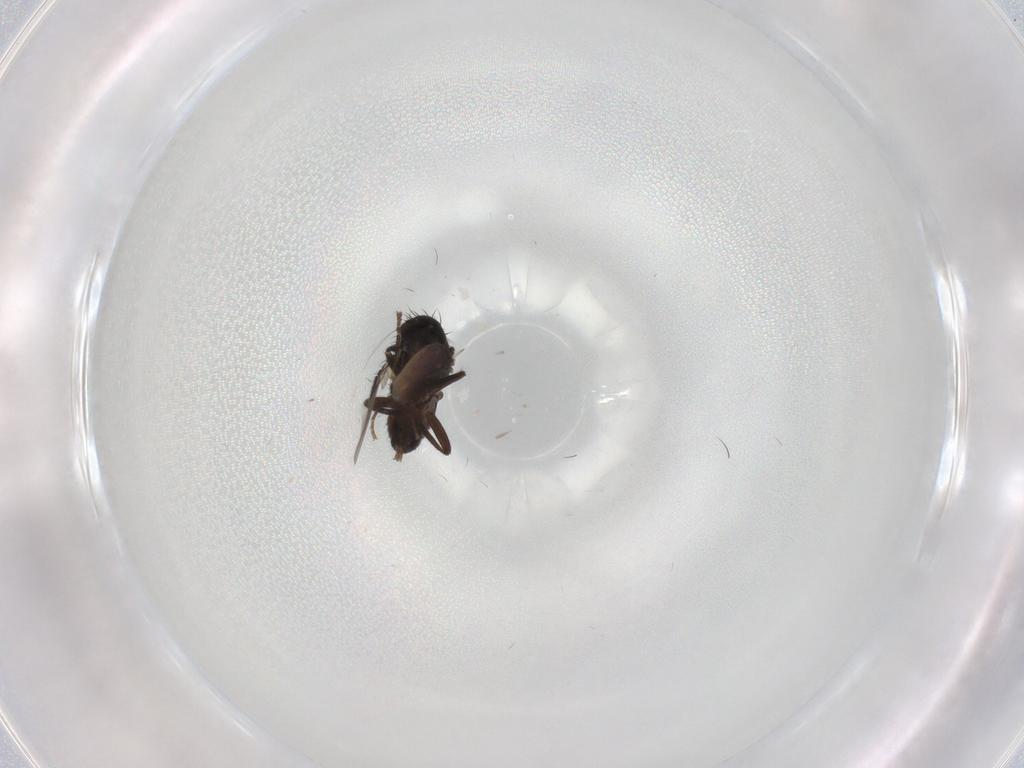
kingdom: Animalia
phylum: Arthropoda
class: Insecta
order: Diptera
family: Chironomidae
